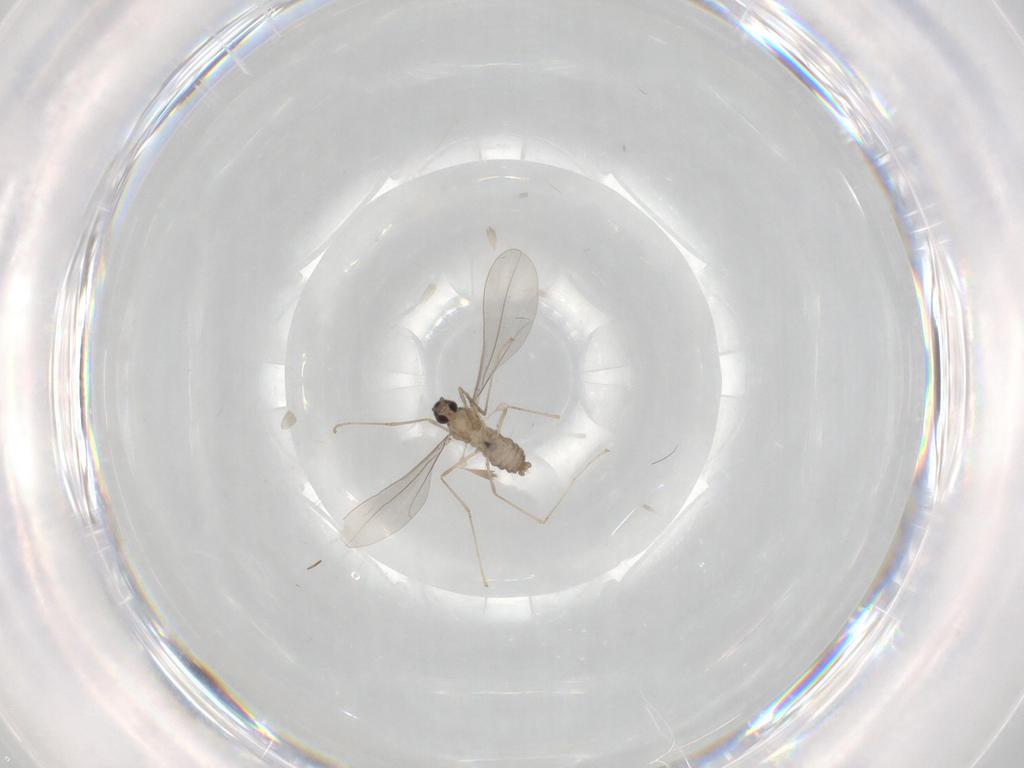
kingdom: Animalia
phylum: Arthropoda
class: Insecta
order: Diptera
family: Cecidomyiidae
